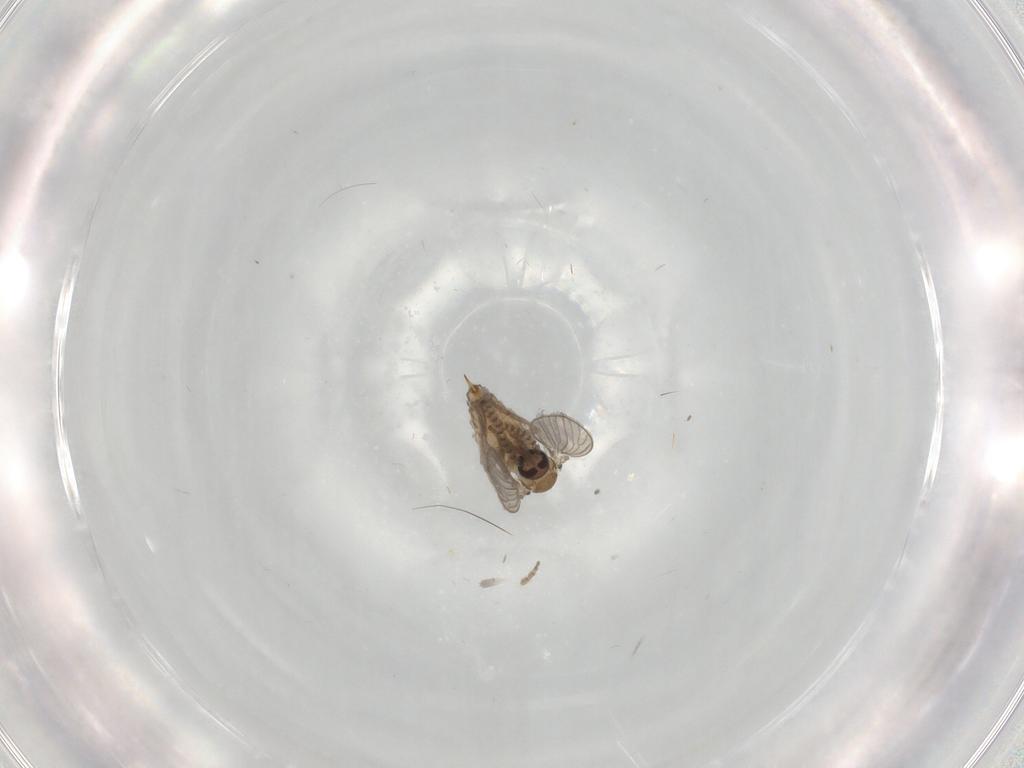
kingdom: Animalia
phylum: Arthropoda
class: Insecta
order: Diptera
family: Psychodidae
